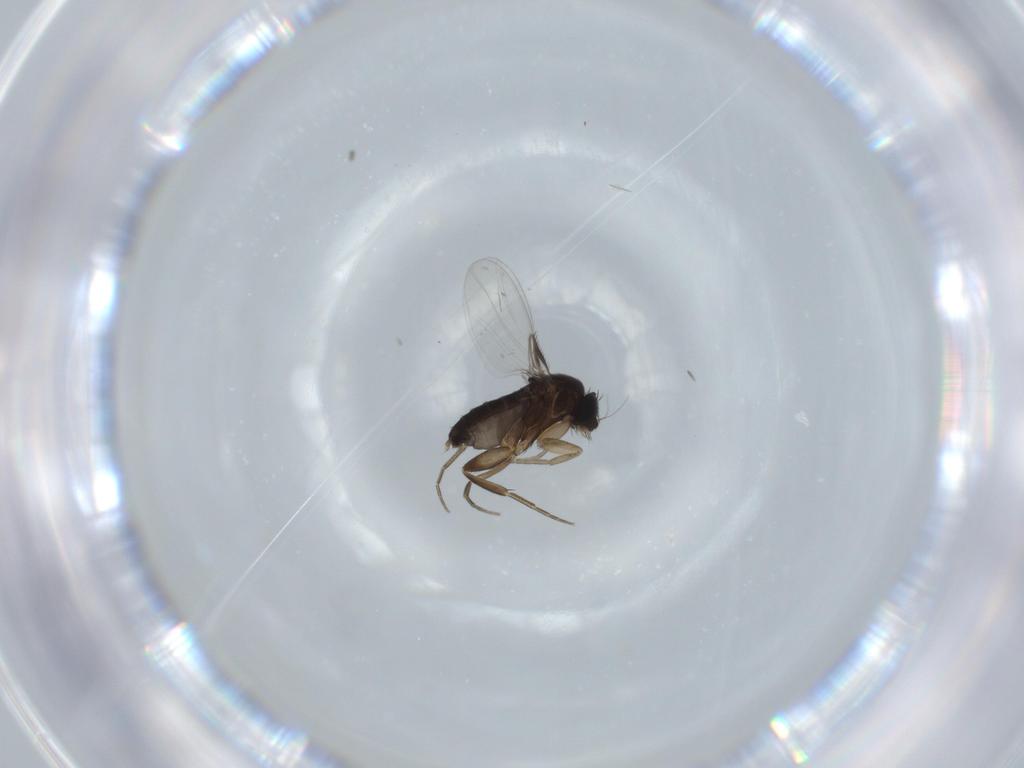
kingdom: Animalia
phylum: Arthropoda
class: Insecta
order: Diptera
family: Phoridae
